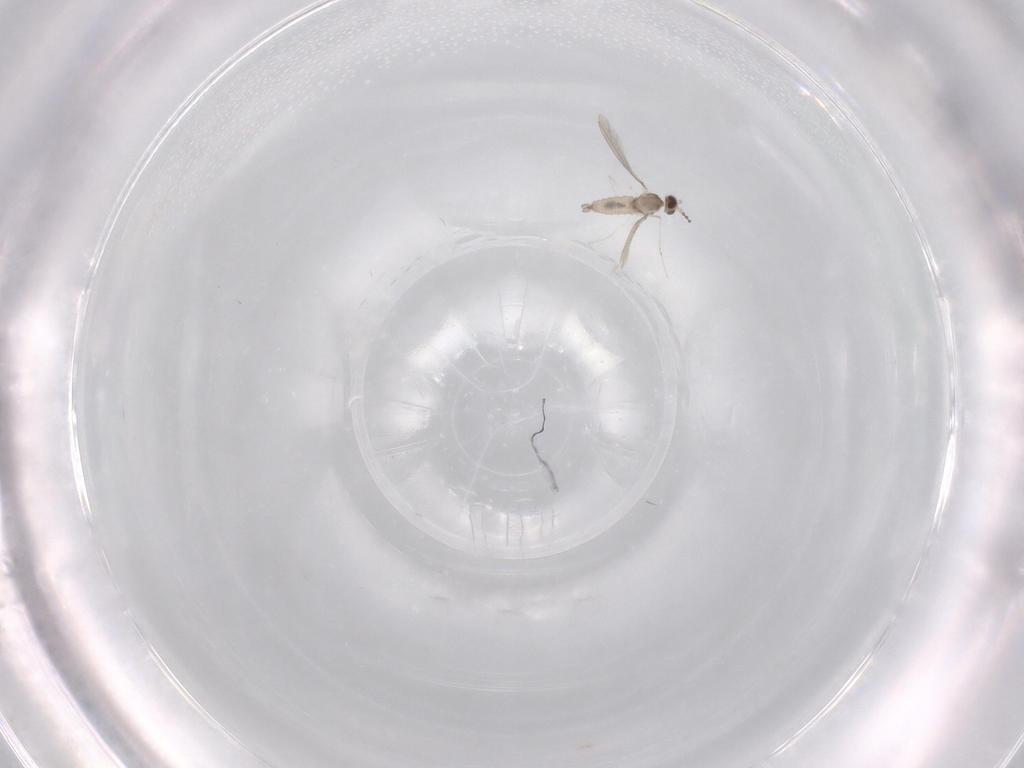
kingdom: Animalia
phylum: Arthropoda
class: Insecta
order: Diptera
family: Cecidomyiidae
